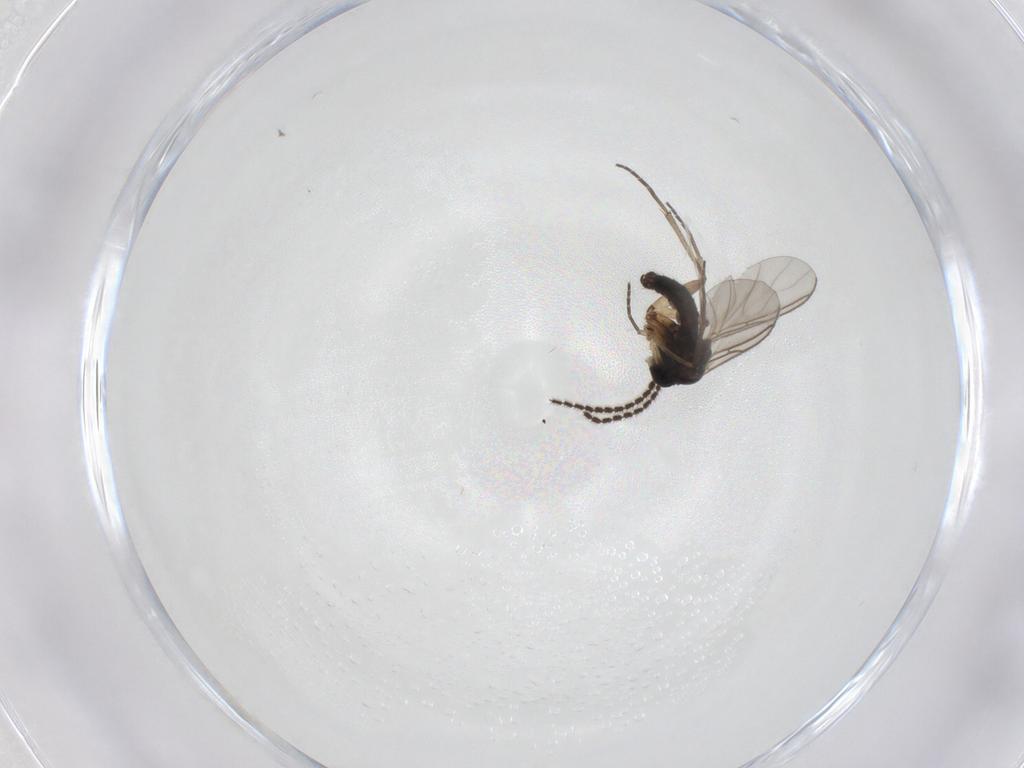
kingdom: Animalia
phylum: Arthropoda
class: Insecta
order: Diptera
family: Sciaridae
